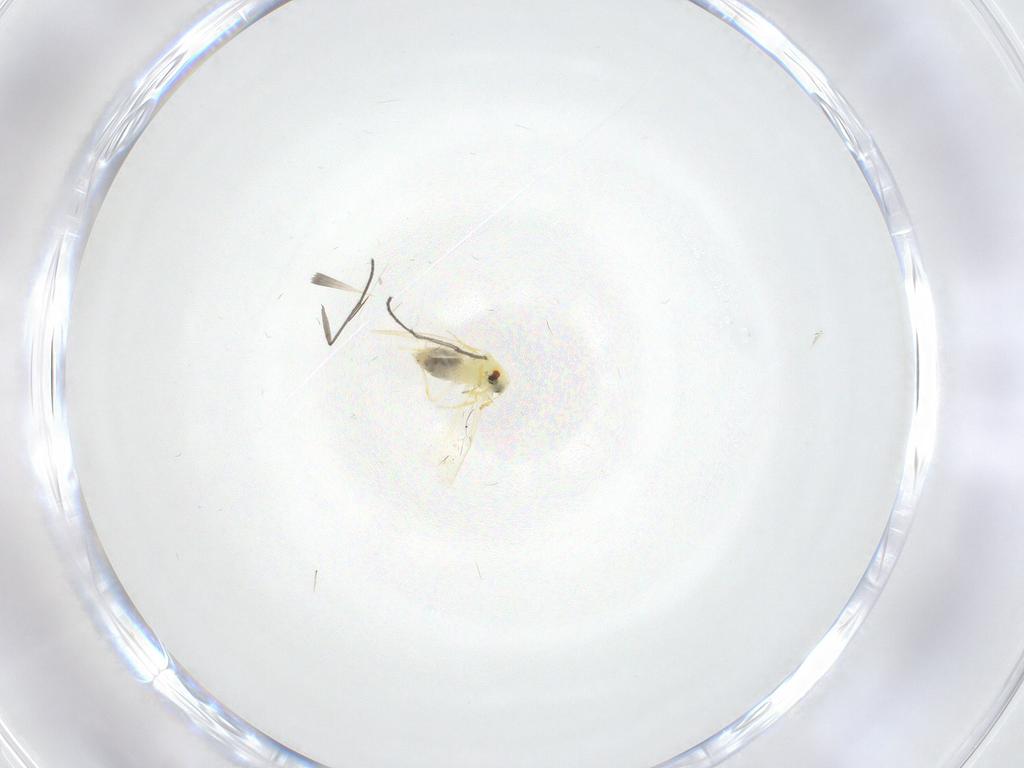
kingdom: Animalia
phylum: Arthropoda
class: Insecta
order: Hemiptera
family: Aleyrodidae
